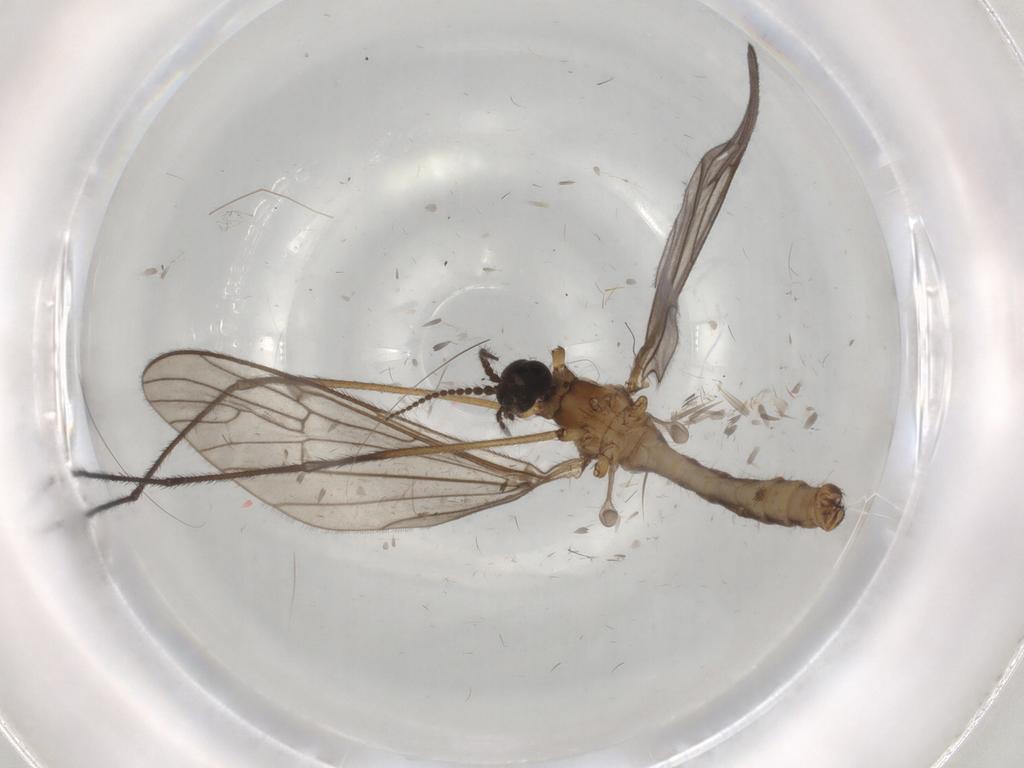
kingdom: Animalia
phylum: Arthropoda
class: Insecta
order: Diptera
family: Sciaridae
